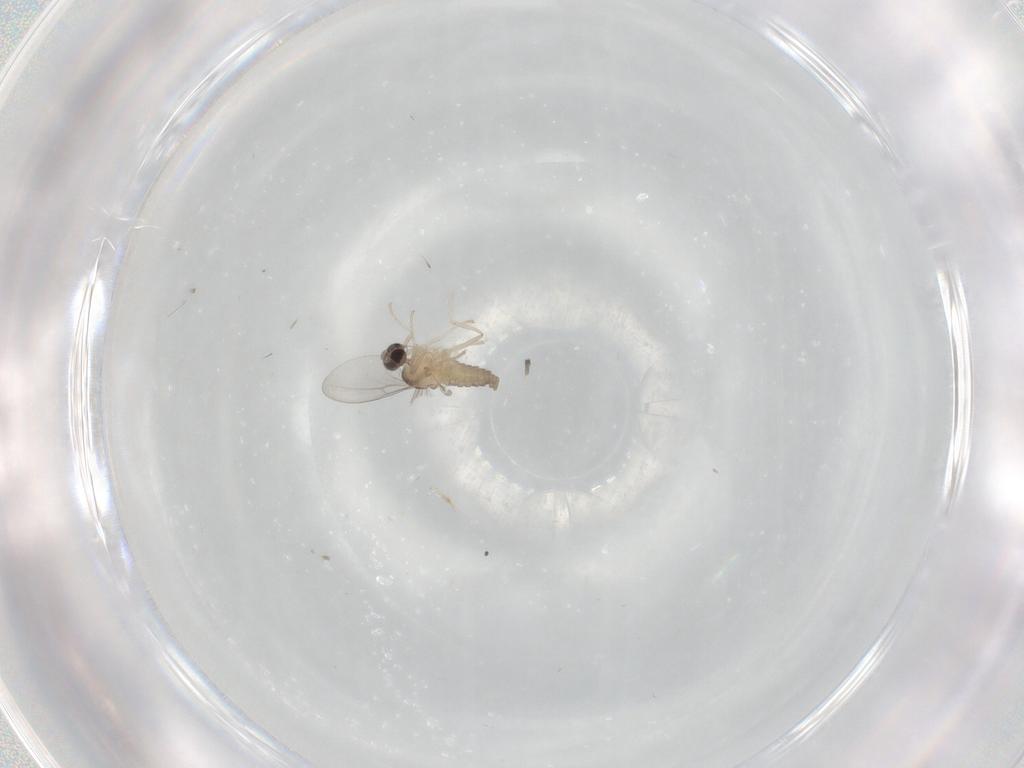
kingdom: Animalia
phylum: Arthropoda
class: Insecta
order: Diptera
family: Cecidomyiidae
